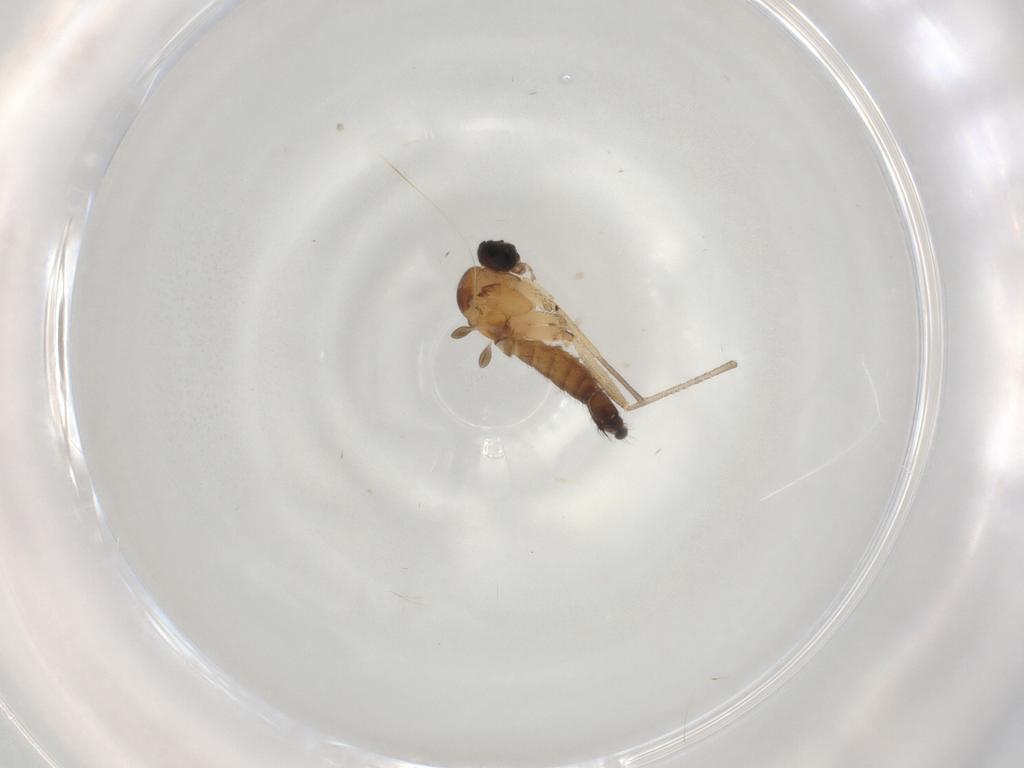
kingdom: Animalia
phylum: Arthropoda
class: Insecta
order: Diptera
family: Sciaridae
